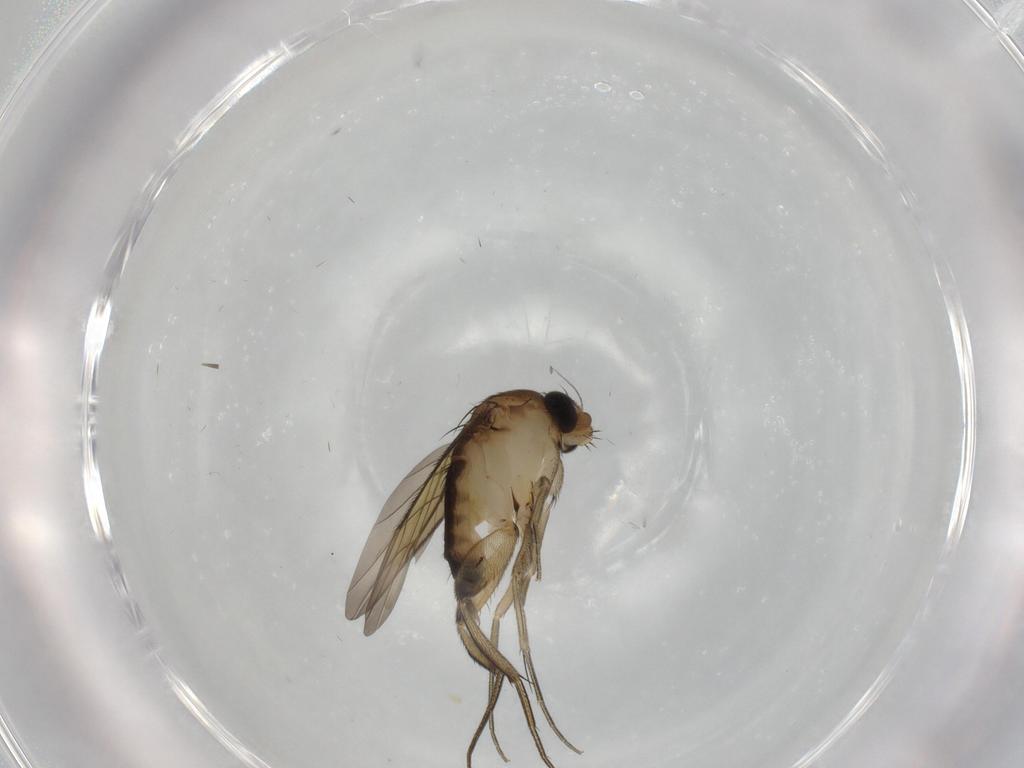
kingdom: Animalia
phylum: Arthropoda
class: Insecta
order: Diptera
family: Phoridae
